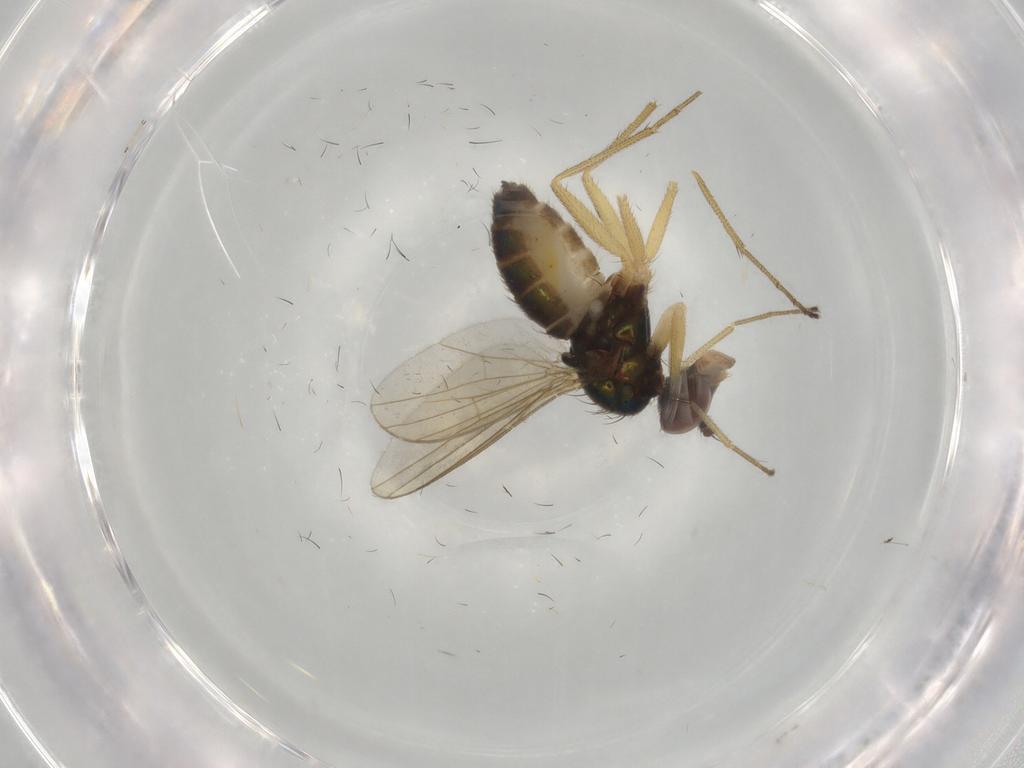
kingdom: Animalia
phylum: Arthropoda
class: Insecta
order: Diptera
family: Dolichopodidae
